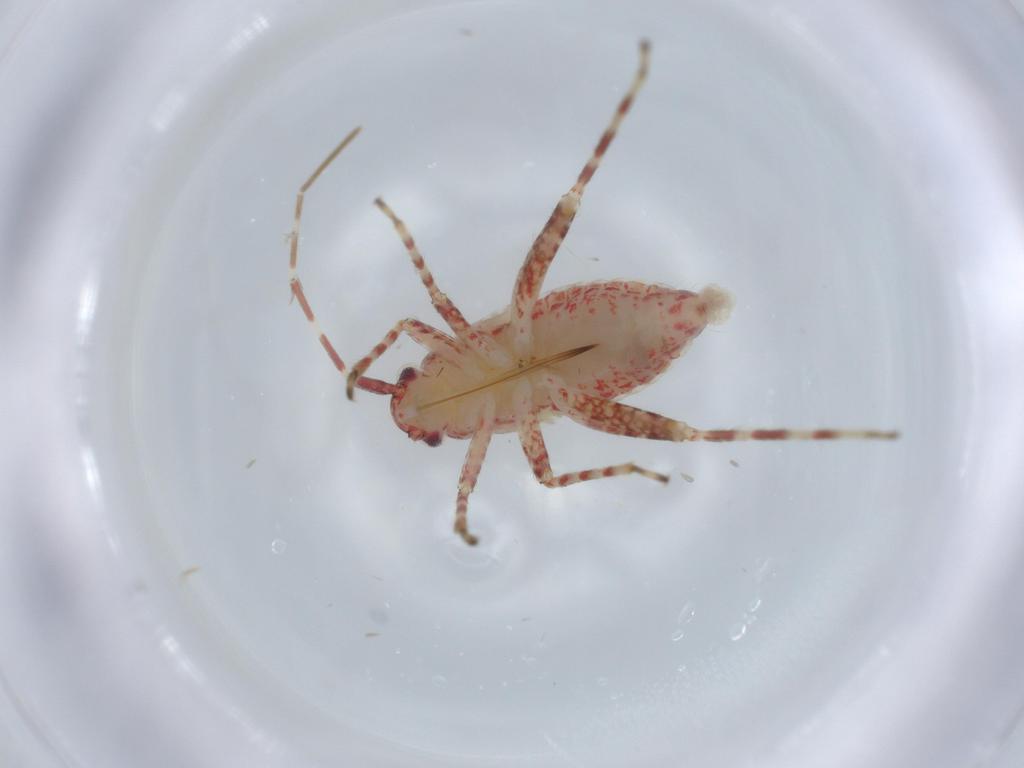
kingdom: Animalia
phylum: Arthropoda
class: Insecta
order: Hemiptera
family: Miridae
